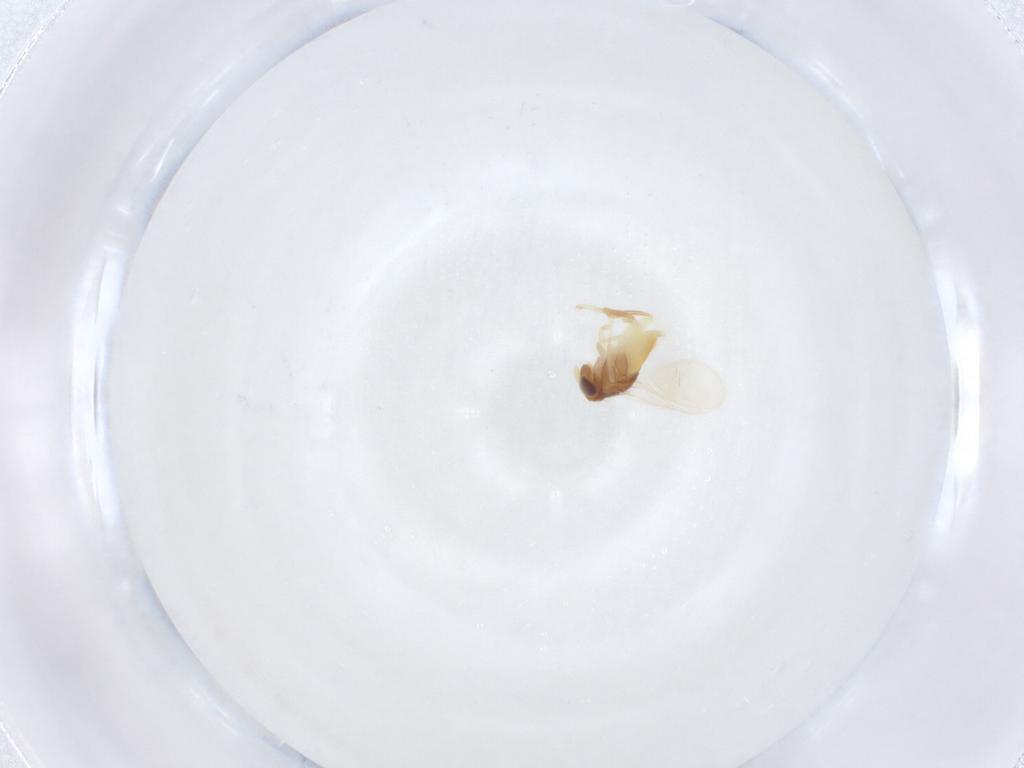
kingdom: Animalia
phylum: Arthropoda
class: Insecta
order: Hymenoptera
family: Formicidae
